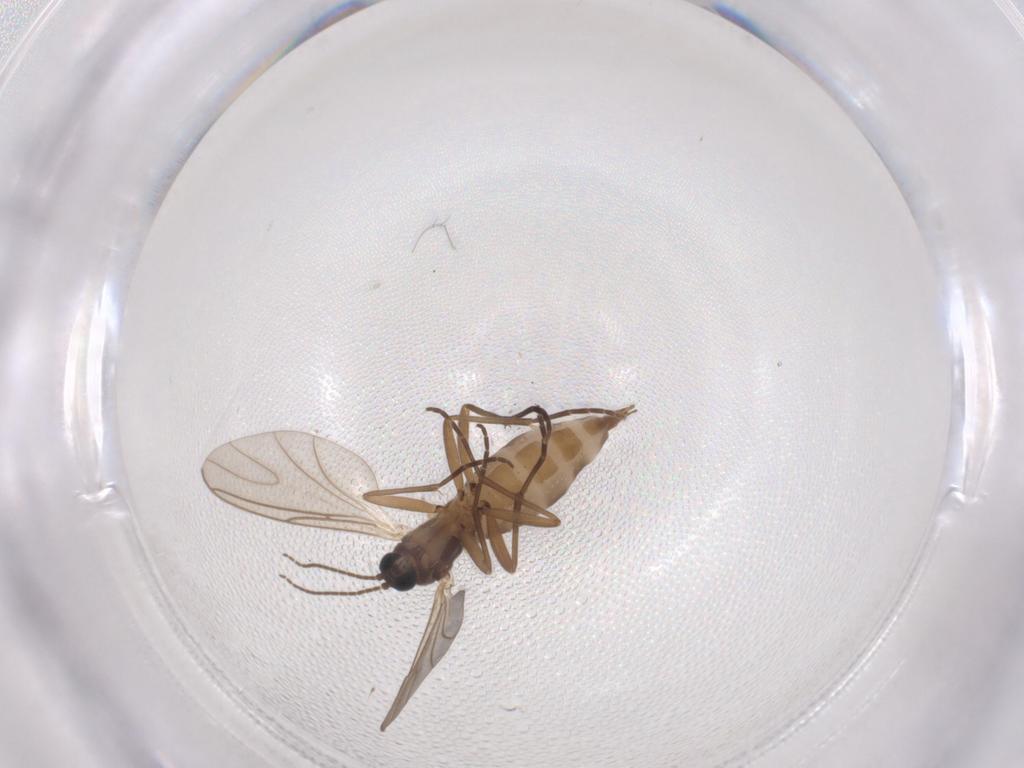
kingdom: Animalia
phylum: Arthropoda
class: Insecta
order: Diptera
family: Sciaridae
